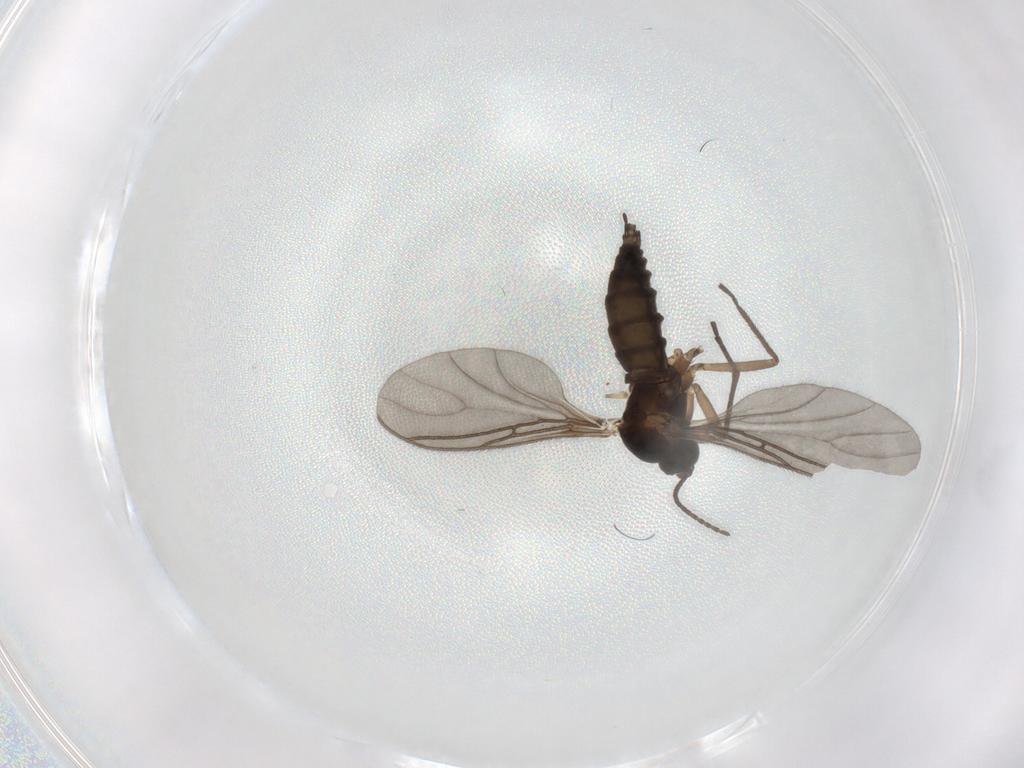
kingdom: Animalia
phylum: Arthropoda
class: Insecta
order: Diptera
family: Sciaridae
